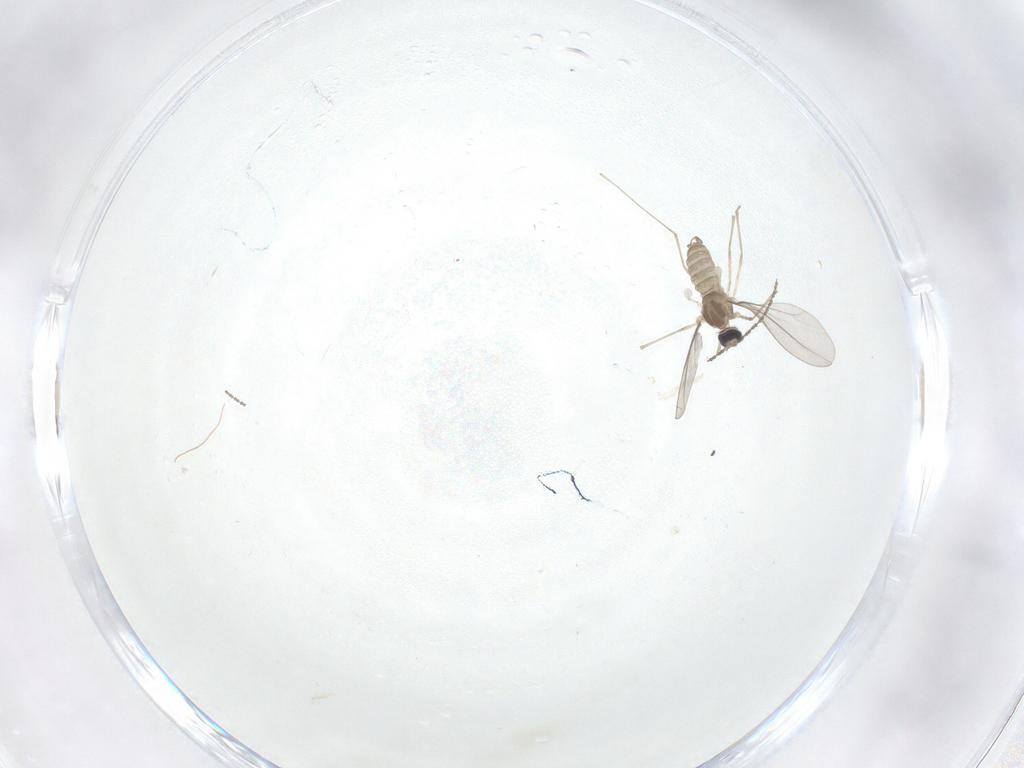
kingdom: Animalia
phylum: Arthropoda
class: Insecta
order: Diptera
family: Cecidomyiidae
